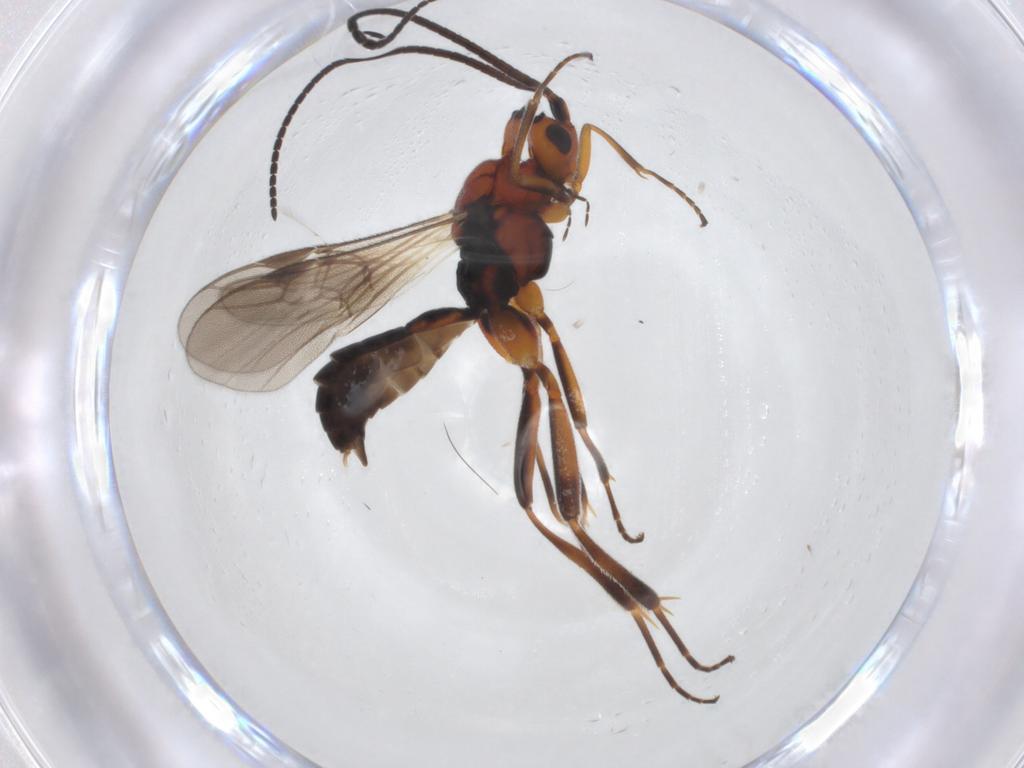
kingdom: Animalia
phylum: Arthropoda
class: Insecta
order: Hymenoptera
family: Braconidae
